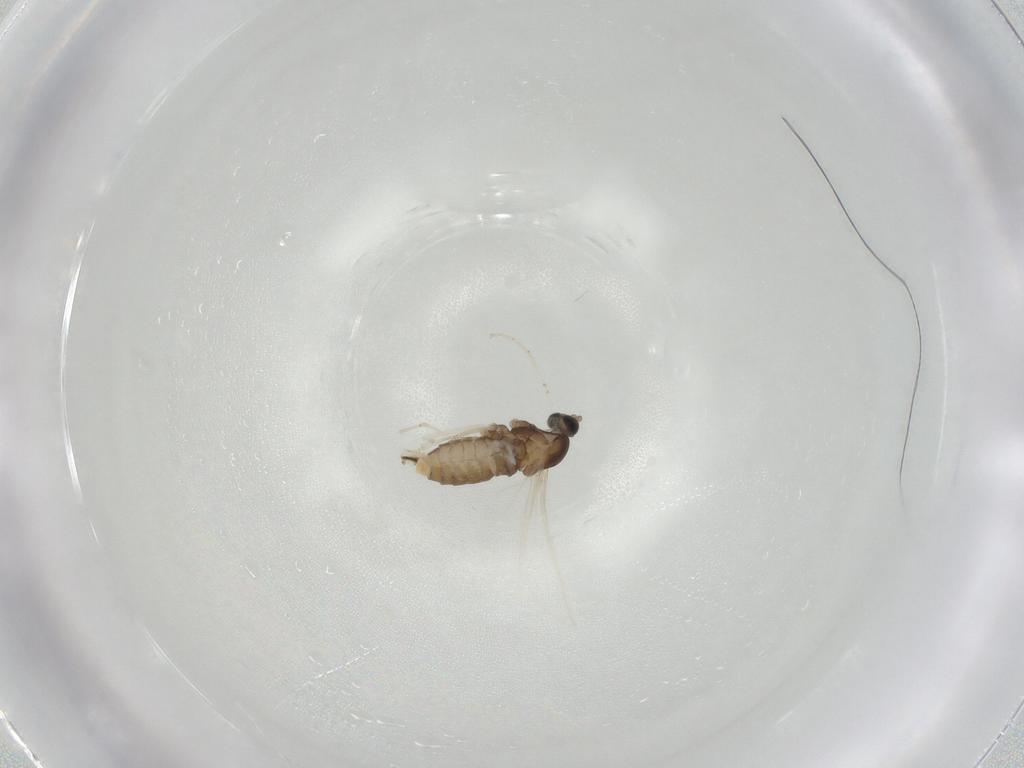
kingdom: Animalia
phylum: Arthropoda
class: Insecta
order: Diptera
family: Cecidomyiidae
